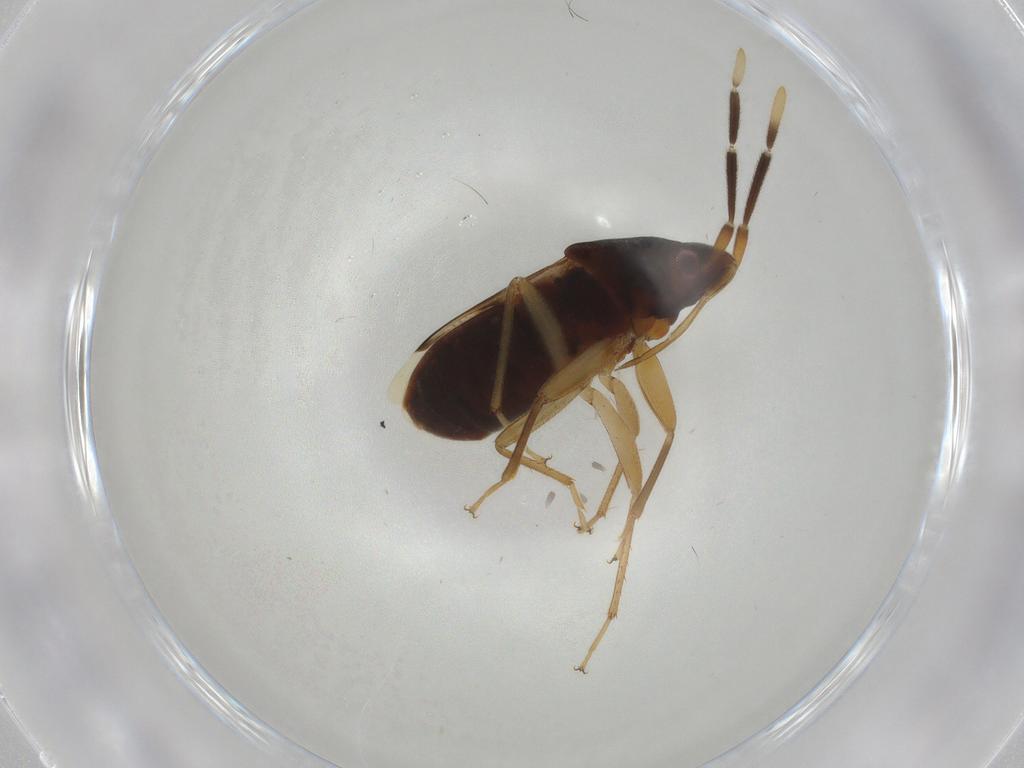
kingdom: Animalia
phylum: Arthropoda
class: Insecta
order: Hemiptera
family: Rhyparochromidae
